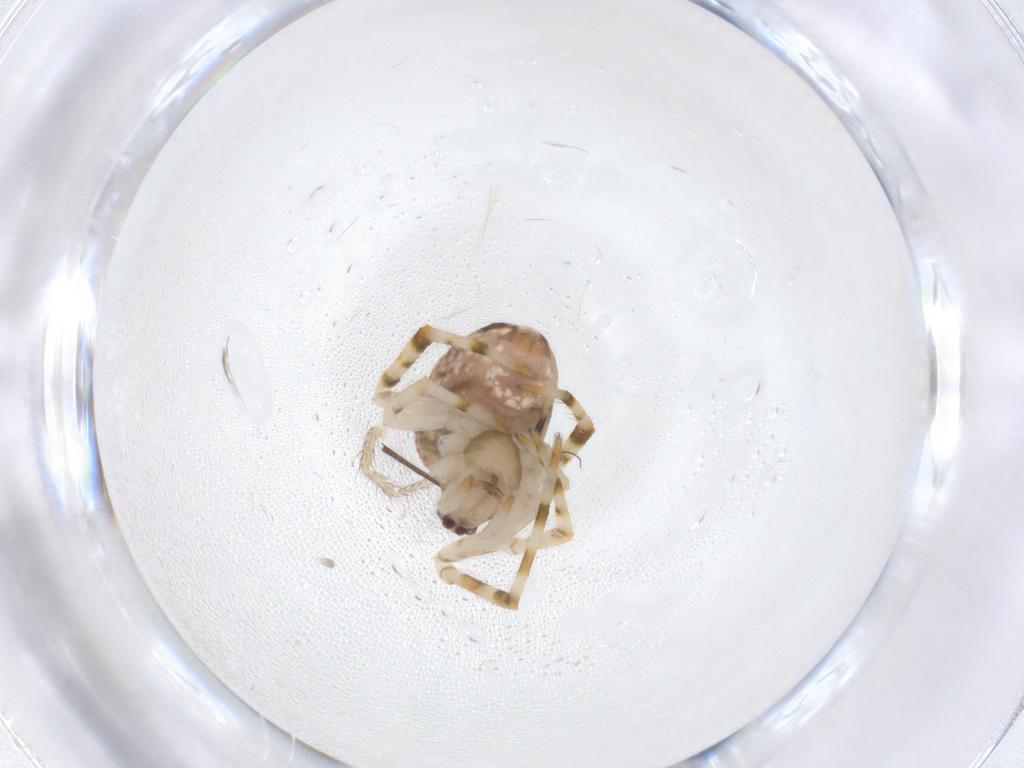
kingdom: Animalia
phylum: Arthropoda
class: Arachnida
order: Araneae
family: Theridiidae
